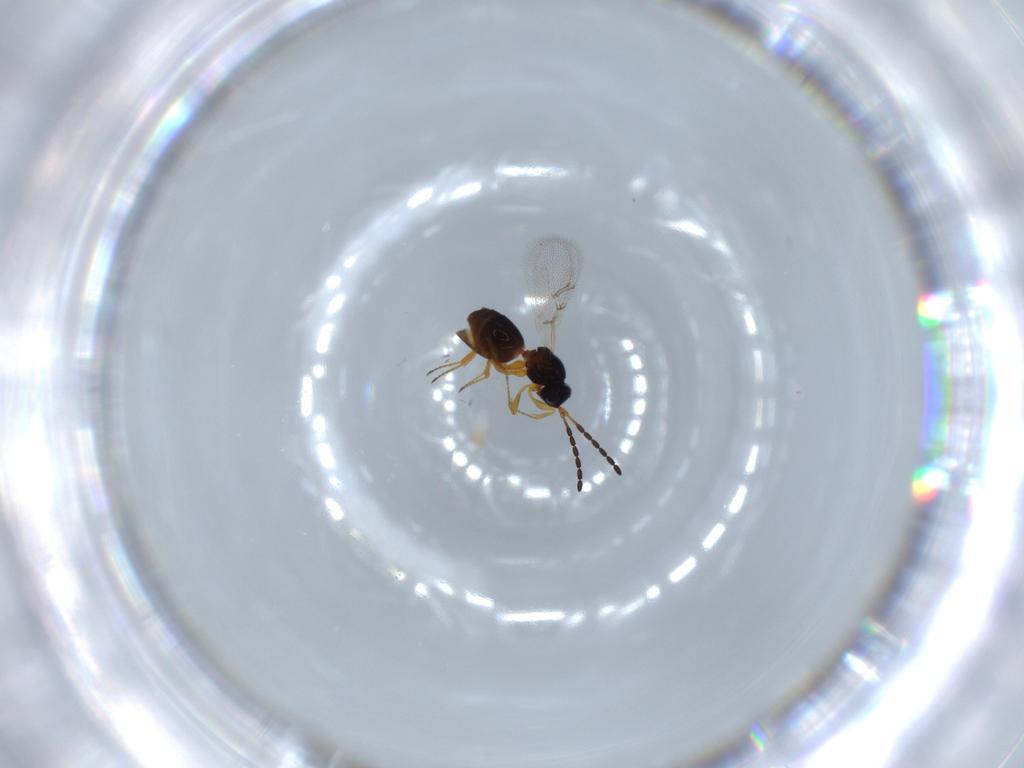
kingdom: Animalia
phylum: Arthropoda
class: Insecta
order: Hymenoptera
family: Figitidae
